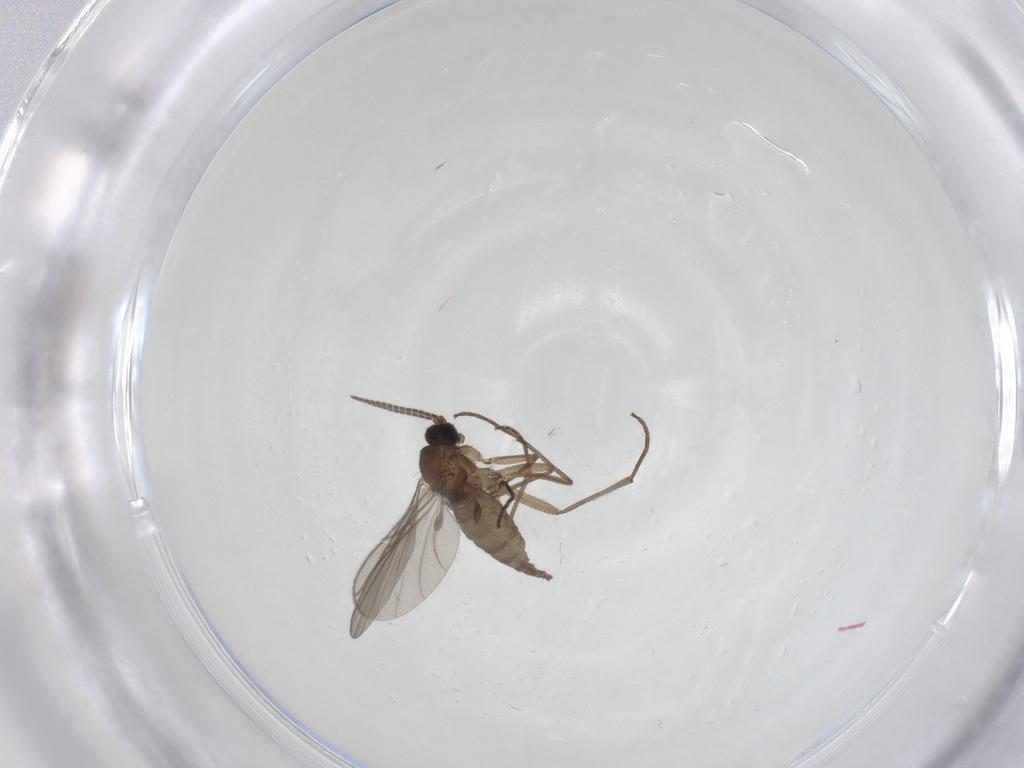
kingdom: Animalia
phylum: Arthropoda
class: Insecta
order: Diptera
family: Sciaridae
